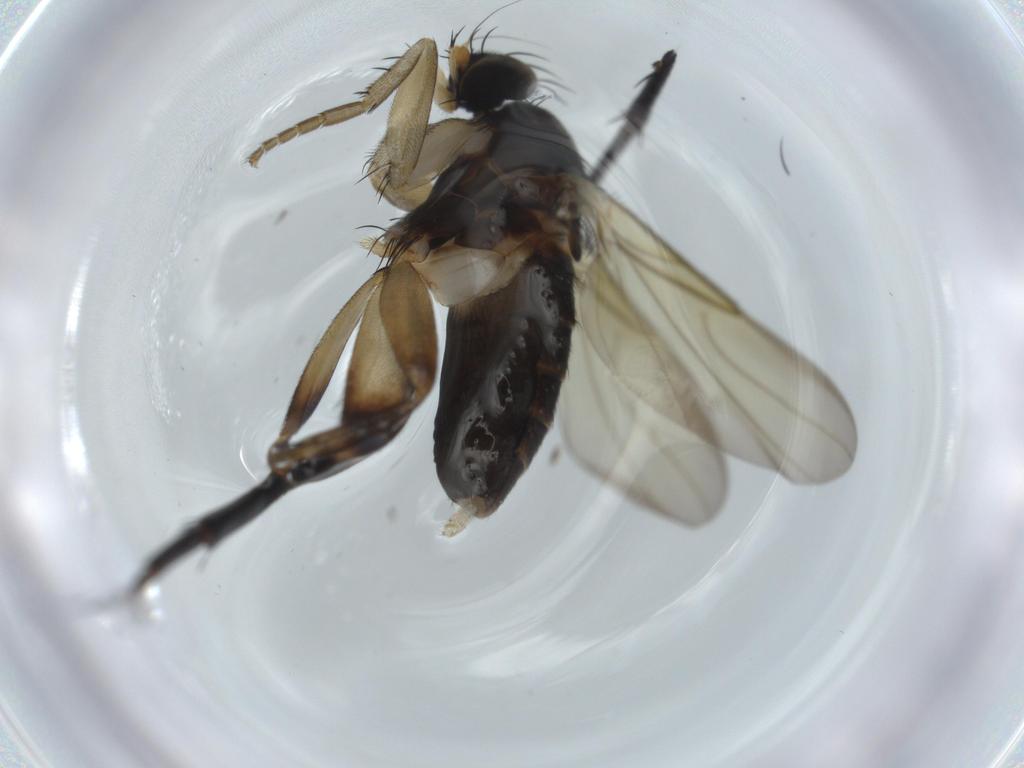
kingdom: Animalia
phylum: Arthropoda
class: Insecta
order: Diptera
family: Phoridae
